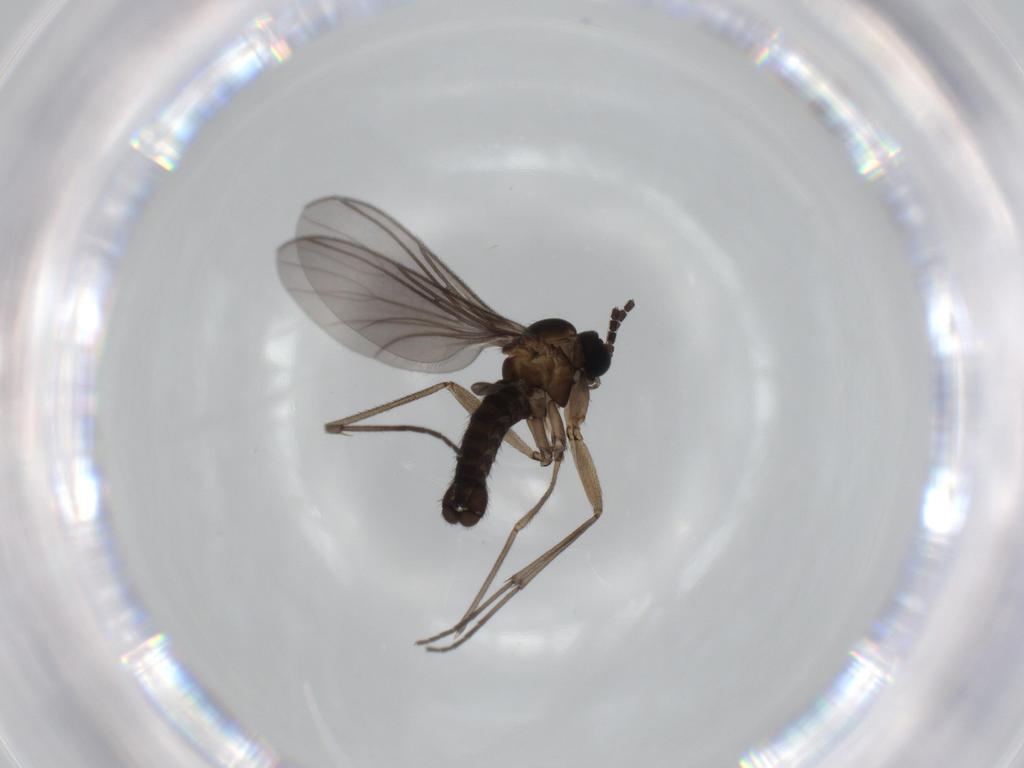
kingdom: Animalia
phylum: Arthropoda
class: Insecta
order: Diptera
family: Sciaridae
